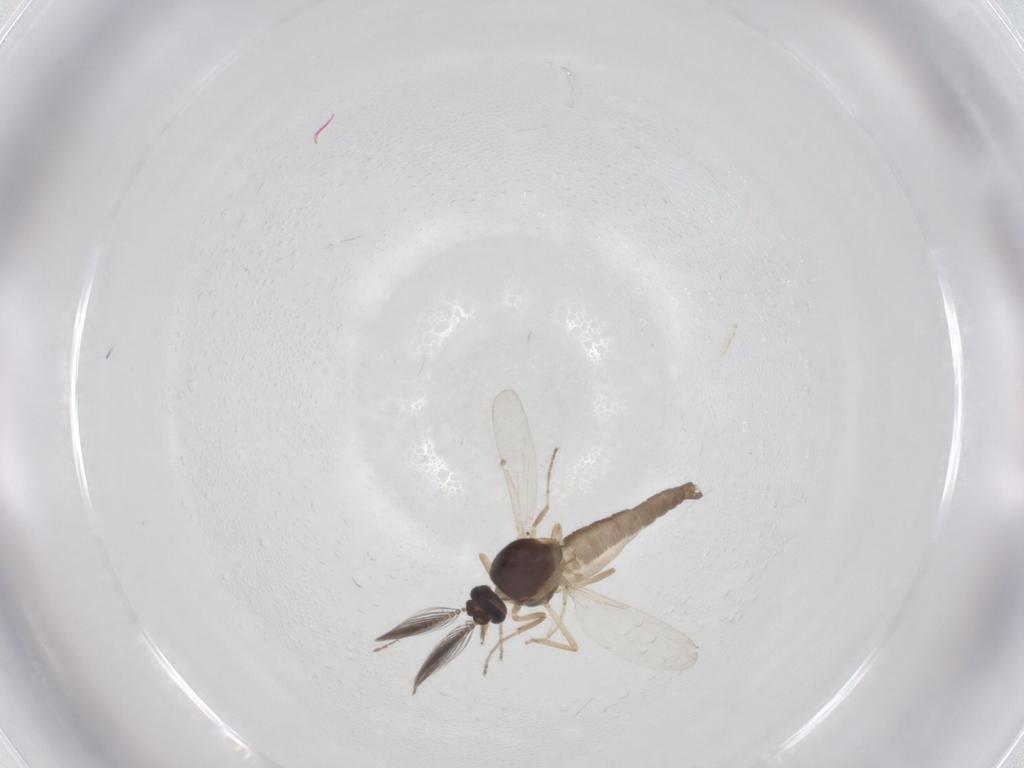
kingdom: Animalia
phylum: Arthropoda
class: Insecta
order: Diptera
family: Ceratopogonidae
